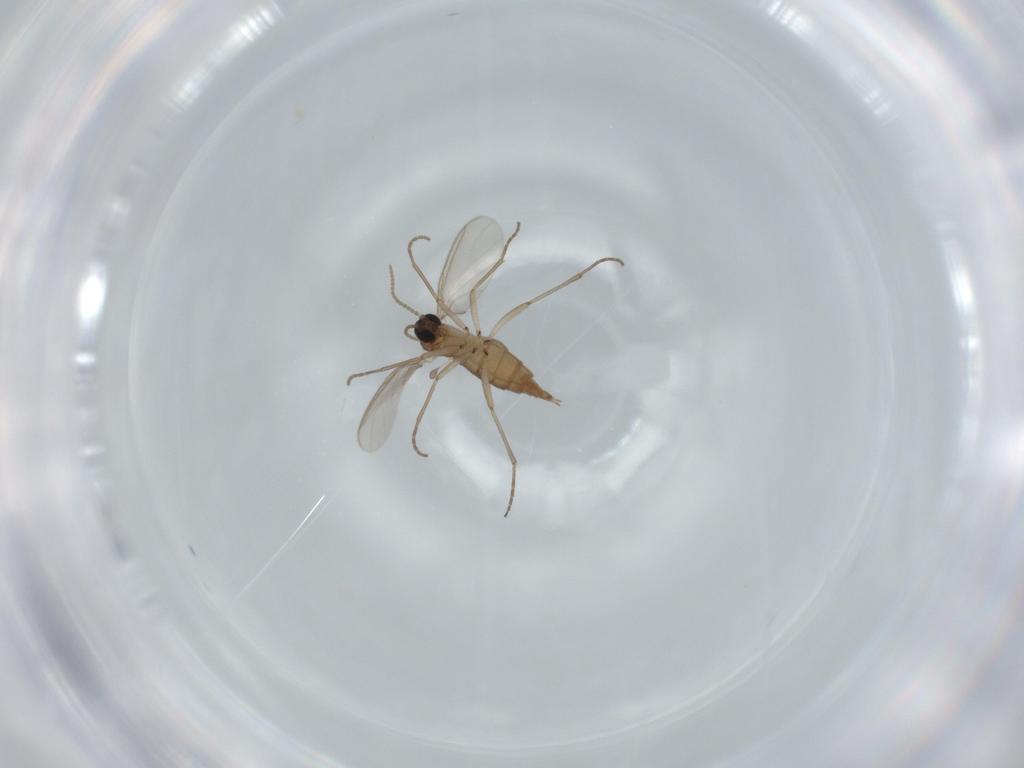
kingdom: Animalia
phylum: Arthropoda
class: Insecta
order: Diptera
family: Sciaridae
